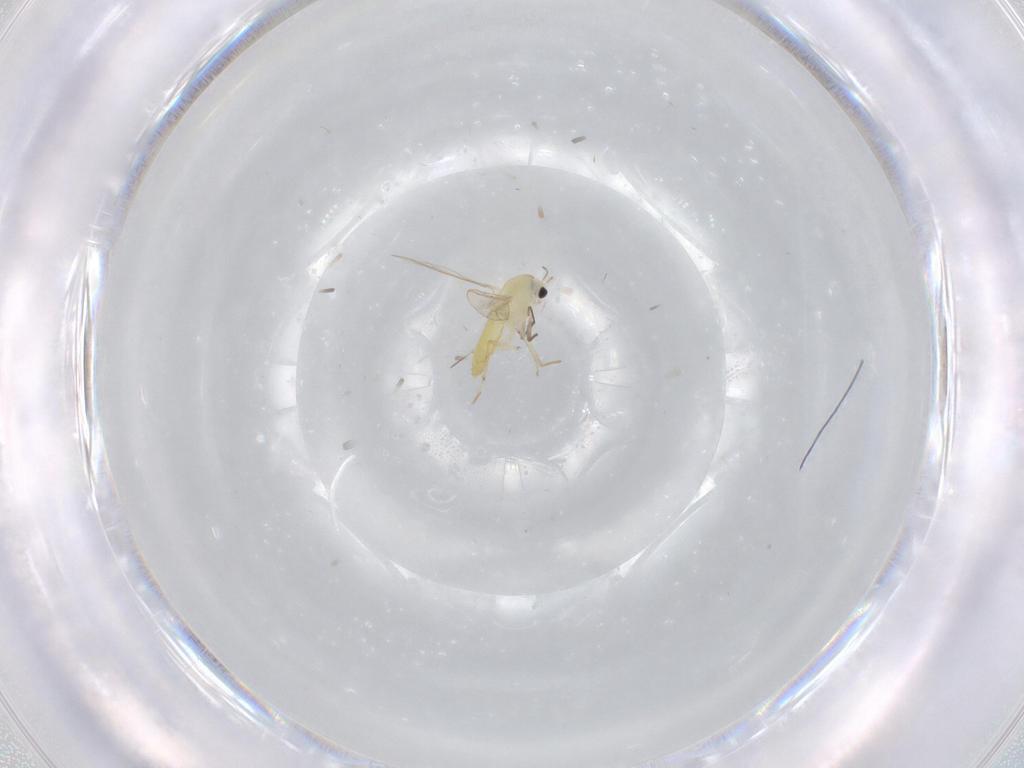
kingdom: Animalia
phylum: Arthropoda
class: Insecta
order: Diptera
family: Chironomidae
